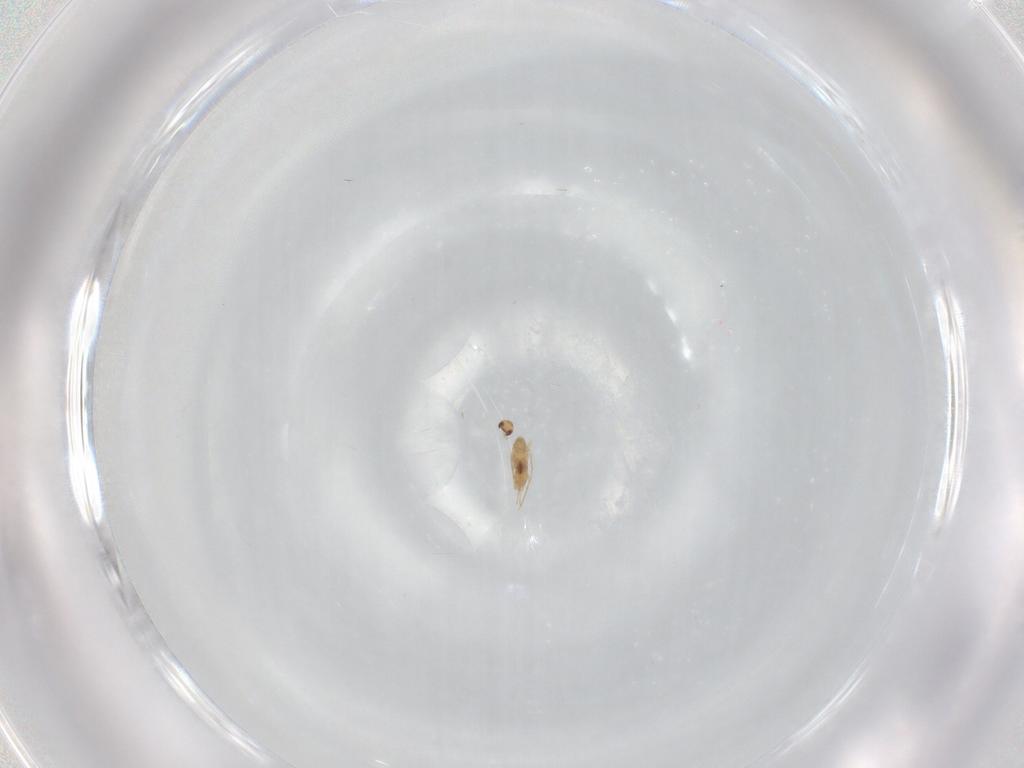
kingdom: Animalia
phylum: Arthropoda
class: Insecta
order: Hymenoptera
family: Mymaridae
